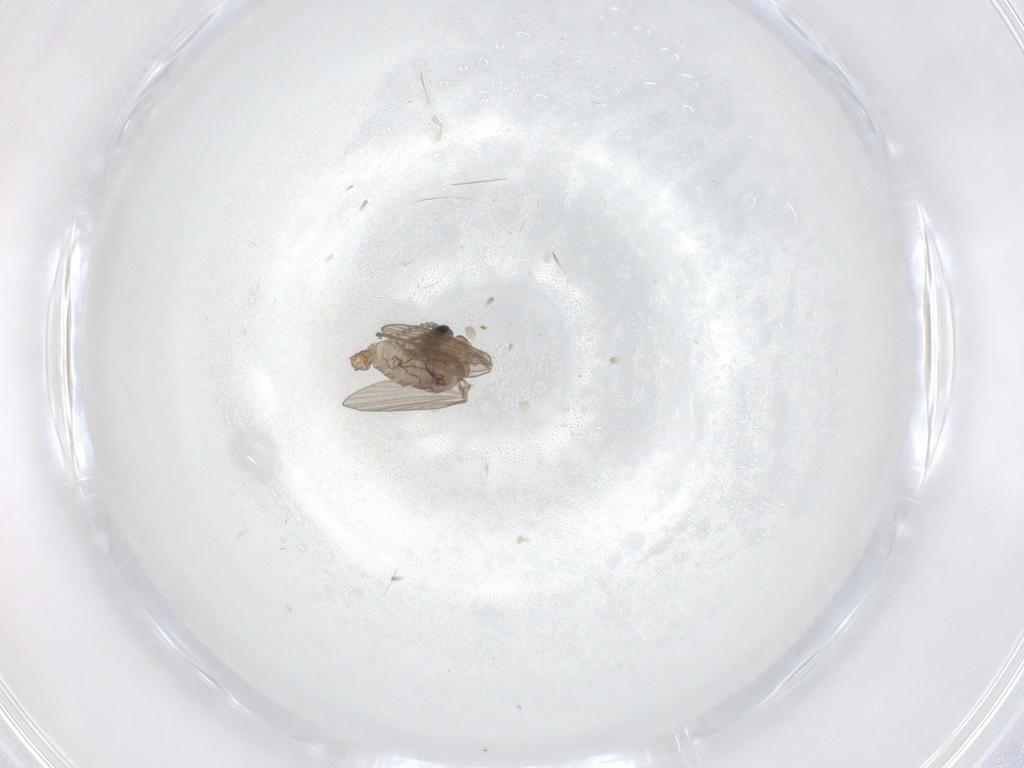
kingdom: Animalia
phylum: Arthropoda
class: Insecta
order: Diptera
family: Psychodidae
